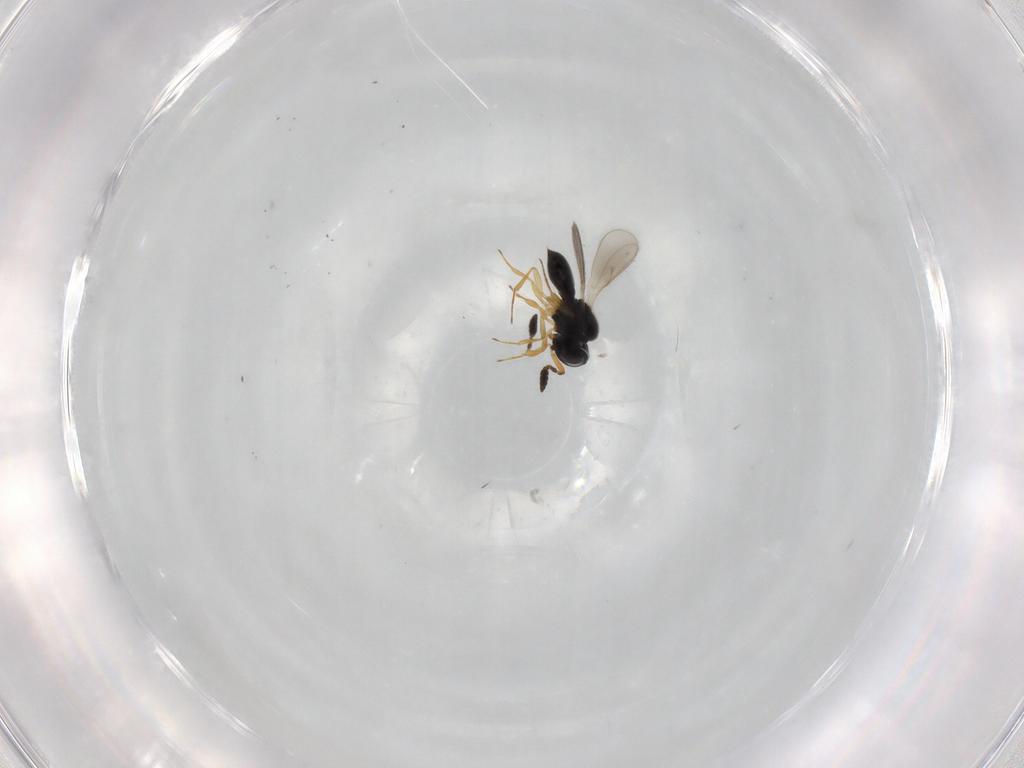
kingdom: Animalia
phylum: Arthropoda
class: Insecta
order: Hymenoptera
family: Scelionidae
